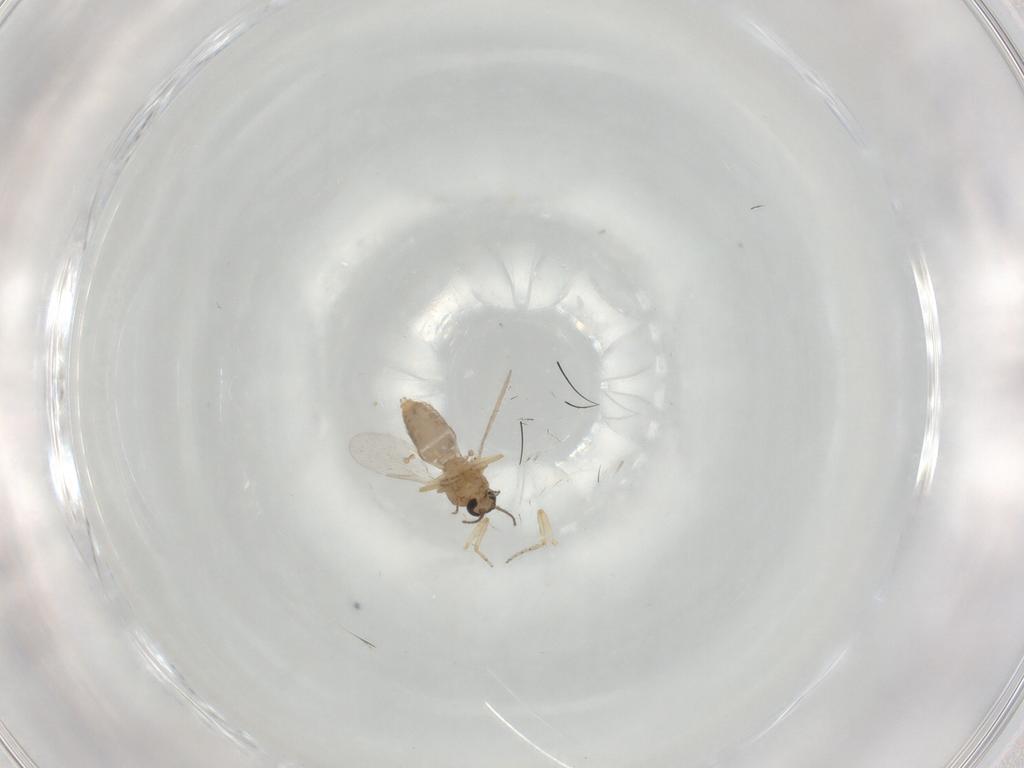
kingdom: Animalia
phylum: Arthropoda
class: Insecta
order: Diptera
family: Ceratopogonidae
